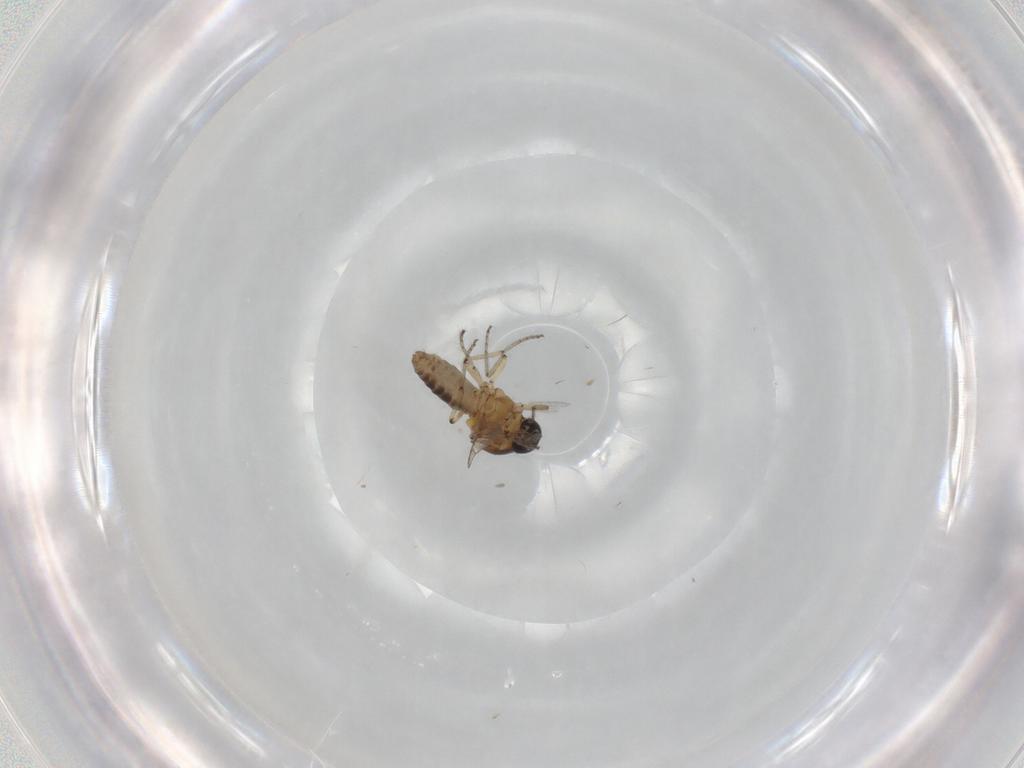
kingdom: Animalia
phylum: Arthropoda
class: Insecta
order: Diptera
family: Ceratopogonidae
